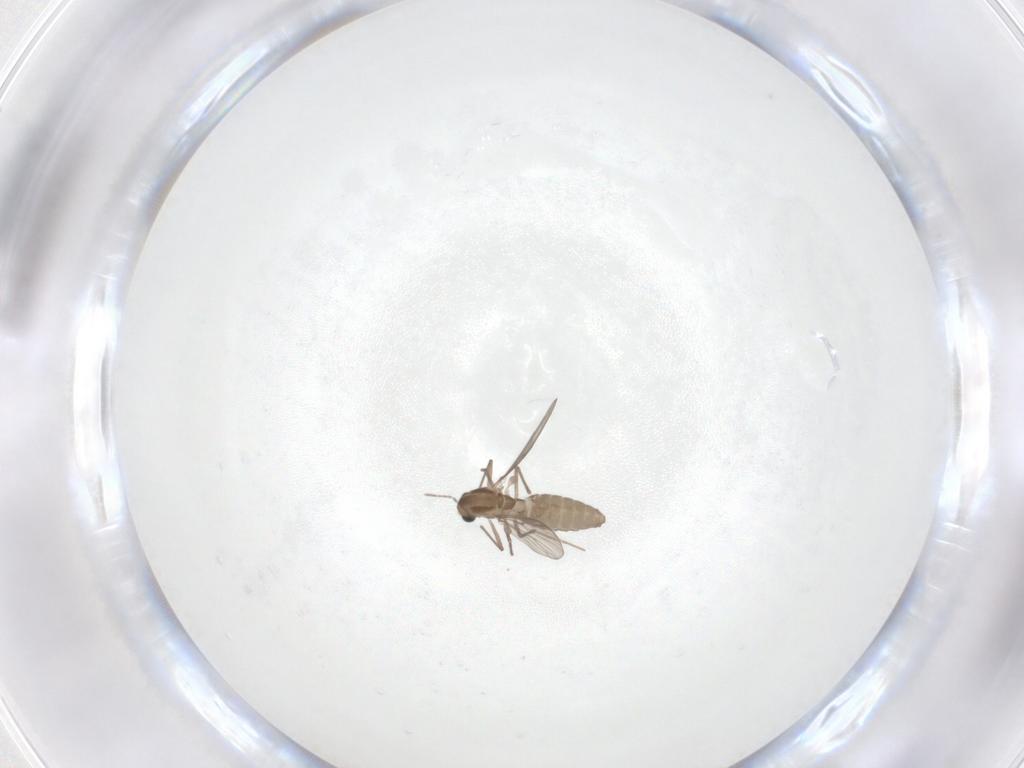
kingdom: Animalia
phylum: Arthropoda
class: Insecta
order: Diptera
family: Chironomidae
